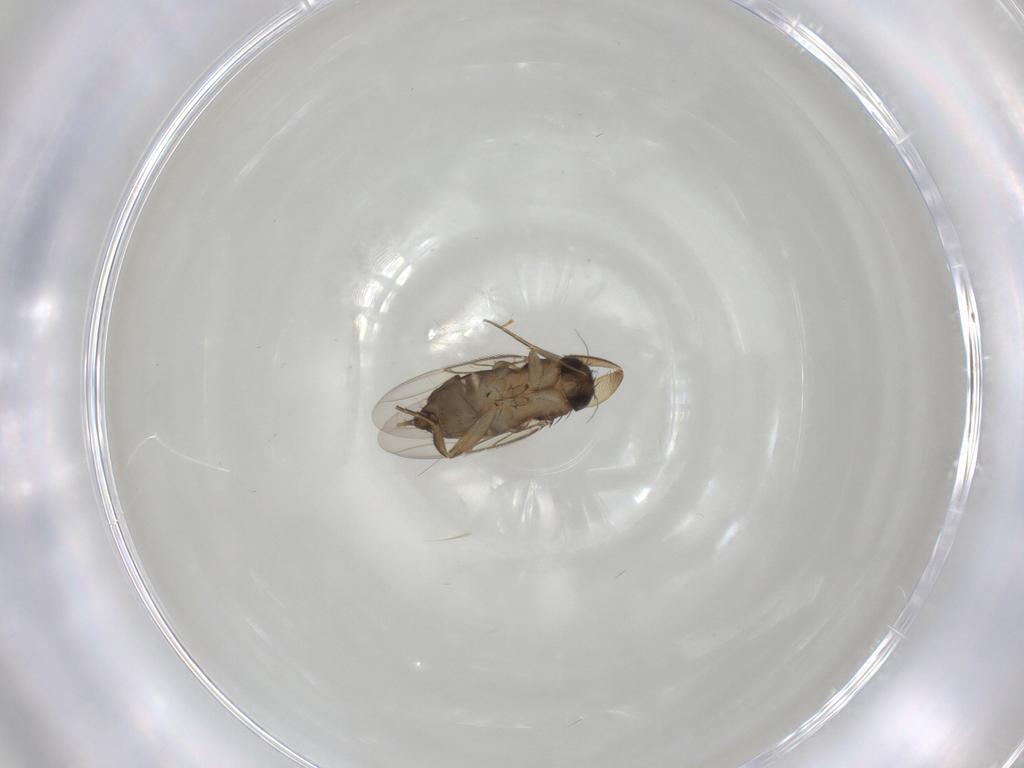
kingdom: Animalia
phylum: Arthropoda
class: Insecta
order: Diptera
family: Phoridae
